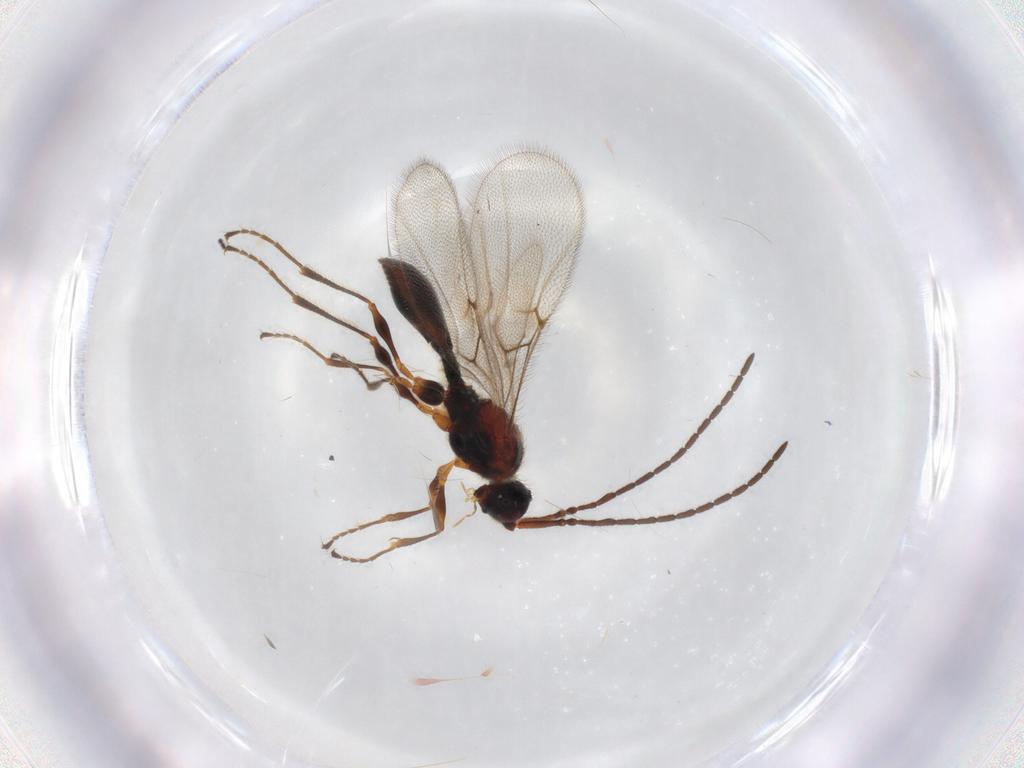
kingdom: Animalia
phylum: Arthropoda
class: Insecta
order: Hymenoptera
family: Diapriidae
